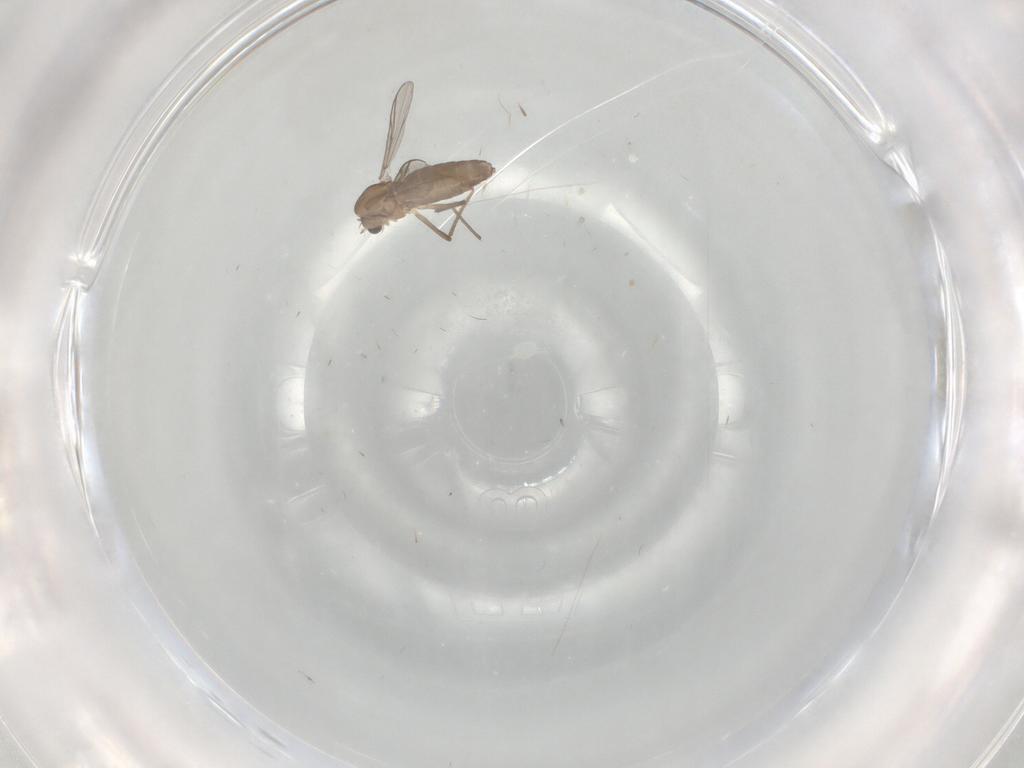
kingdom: Animalia
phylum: Arthropoda
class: Insecta
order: Diptera
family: Chironomidae
